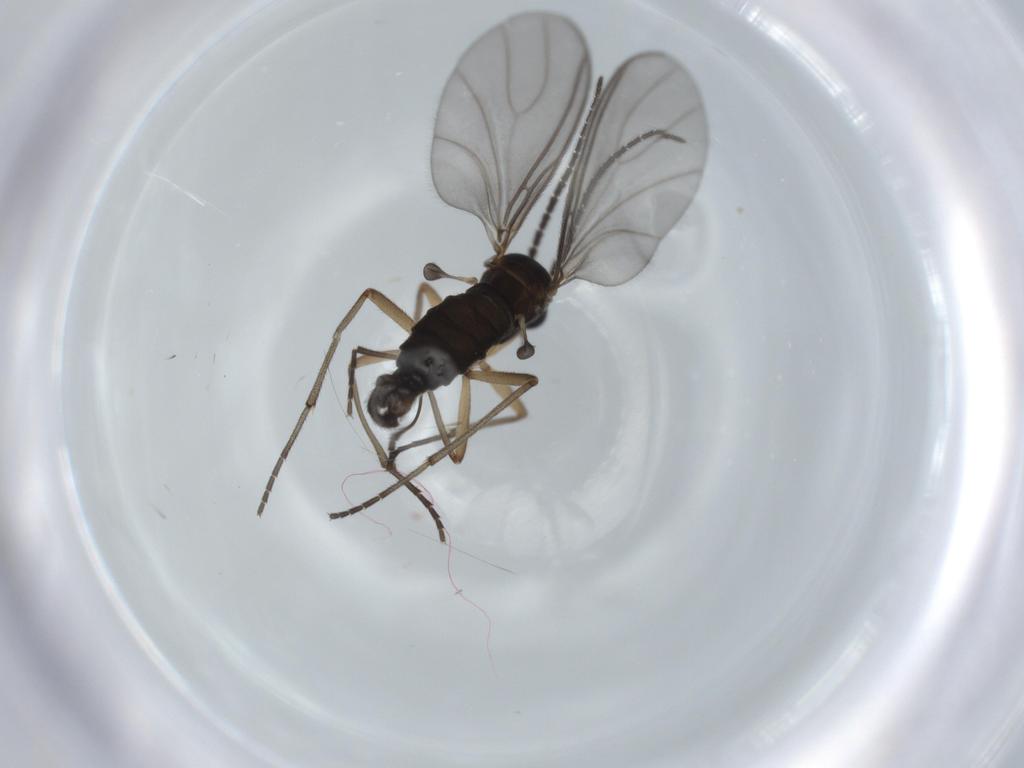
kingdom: Animalia
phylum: Arthropoda
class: Insecta
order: Diptera
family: Sciaridae
